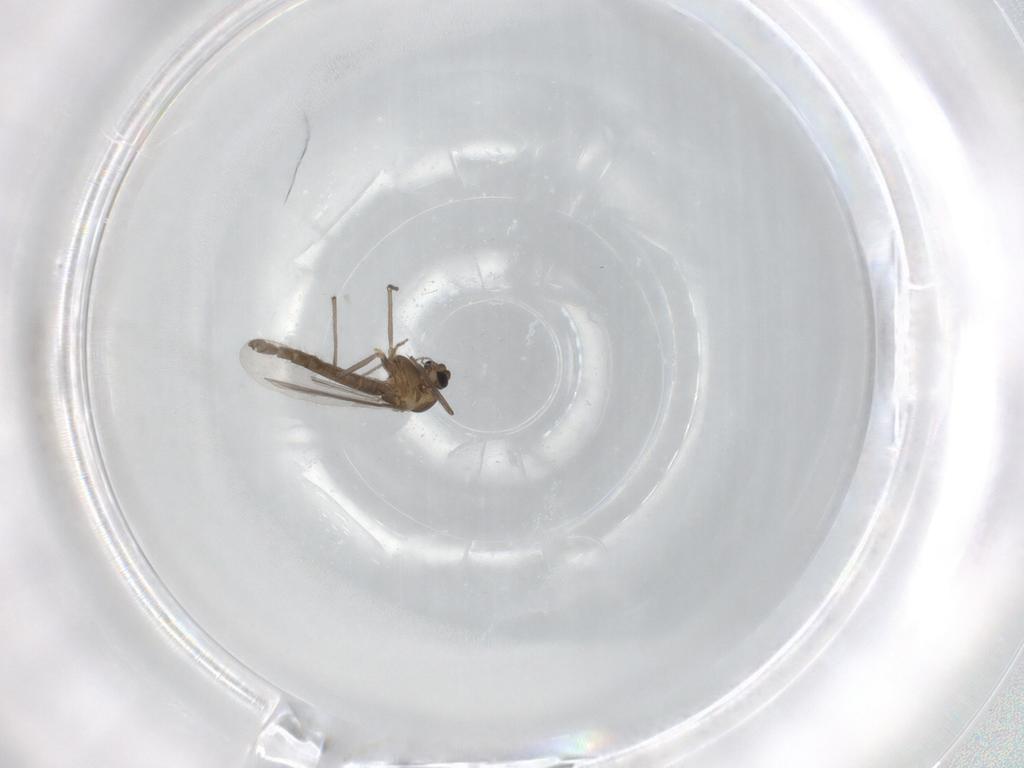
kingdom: Animalia
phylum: Arthropoda
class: Insecta
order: Diptera
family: Chironomidae
